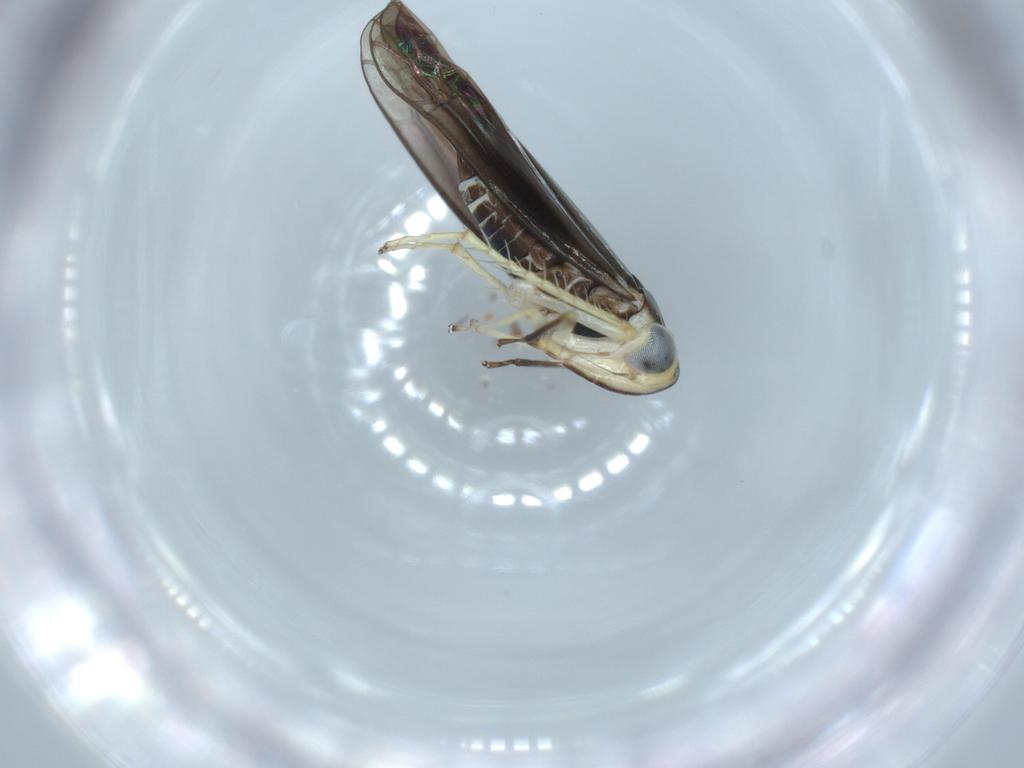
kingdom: Animalia
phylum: Arthropoda
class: Insecta
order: Hemiptera
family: Cicadellidae
